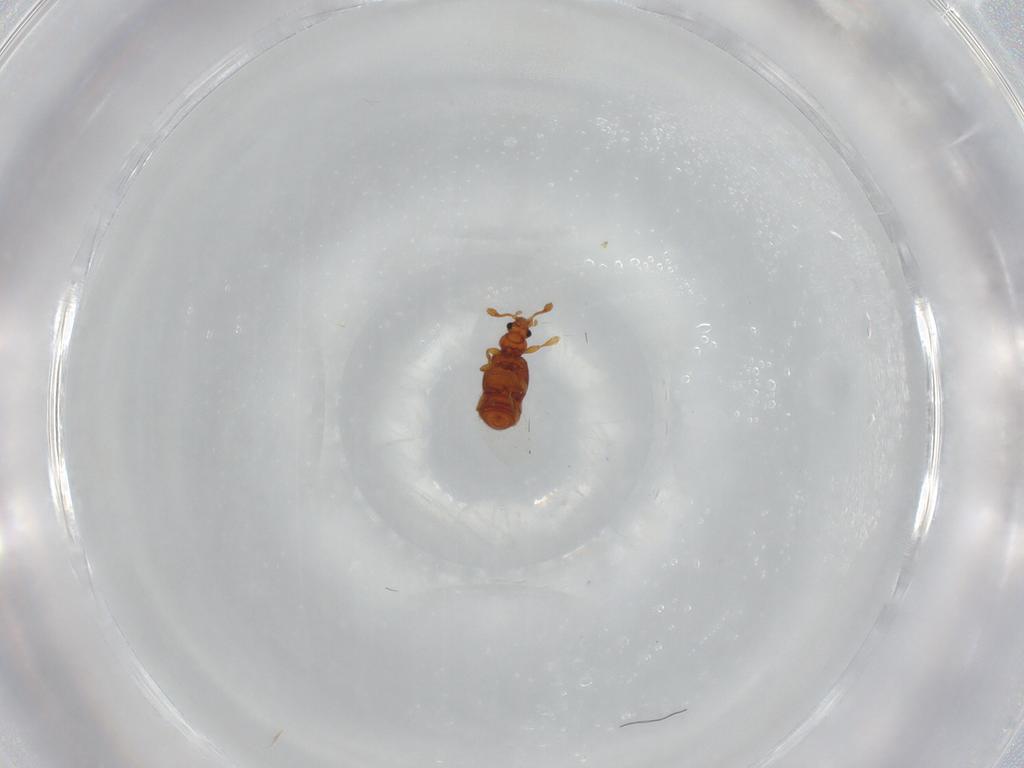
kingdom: Animalia
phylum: Arthropoda
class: Insecta
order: Coleoptera
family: Staphylinidae
